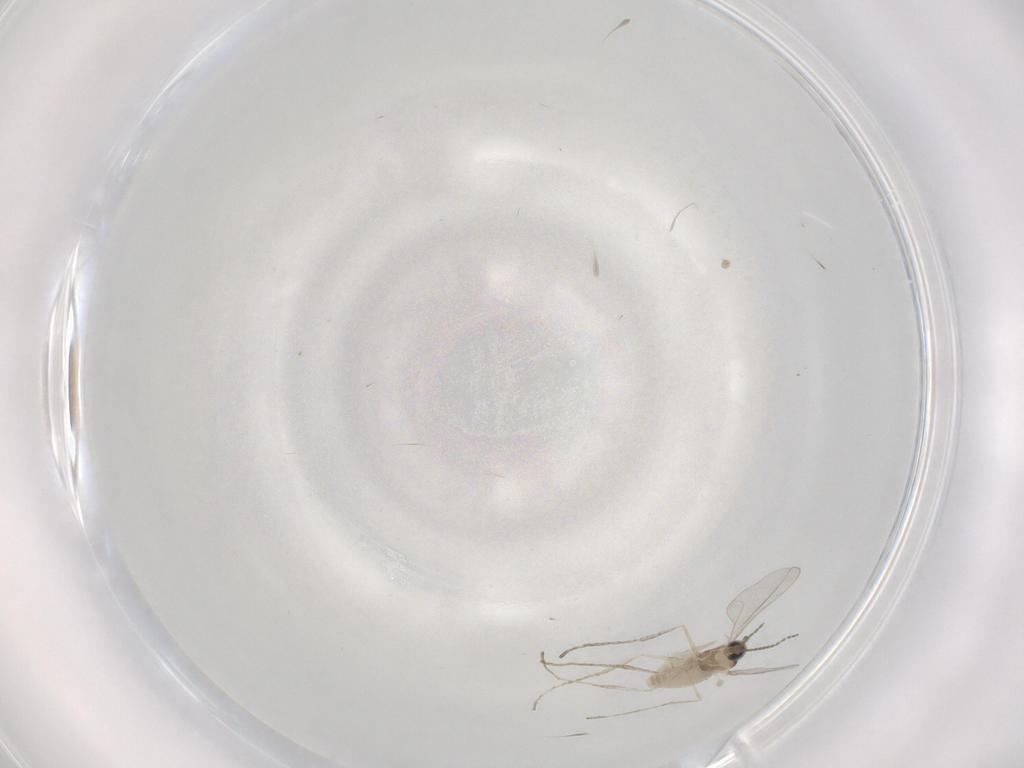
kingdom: Animalia
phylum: Arthropoda
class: Insecta
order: Diptera
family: Cecidomyiidae
